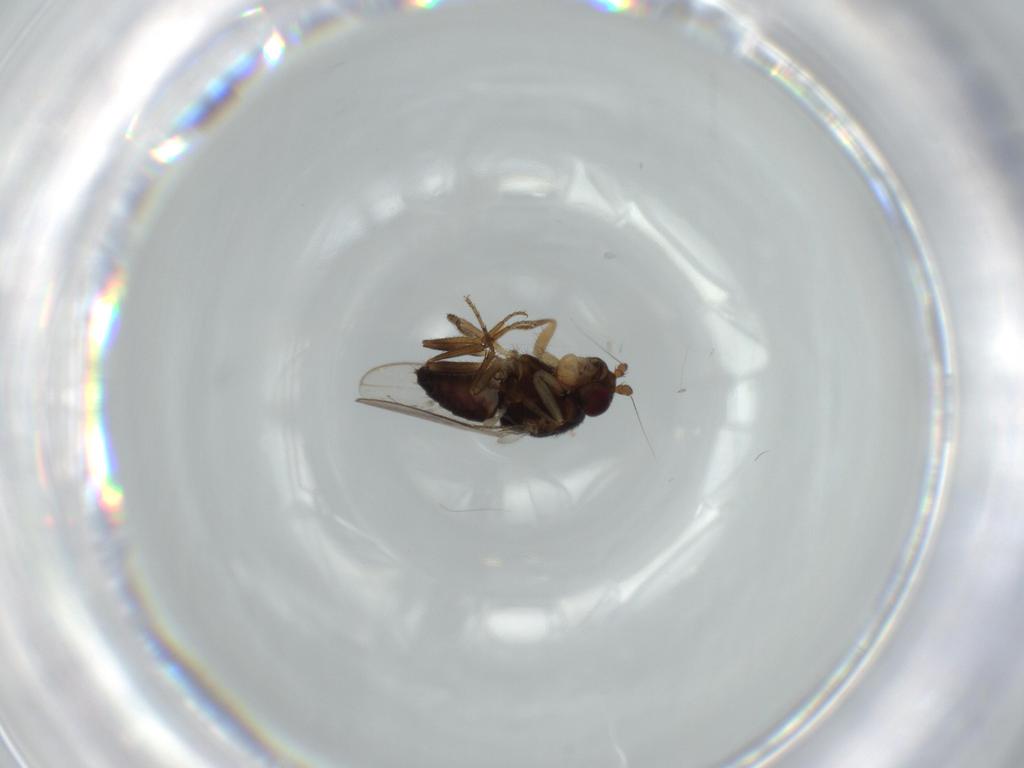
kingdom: Animalia
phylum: Arthropoda
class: Insecta
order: Diptera
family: Sphaeroceridae
